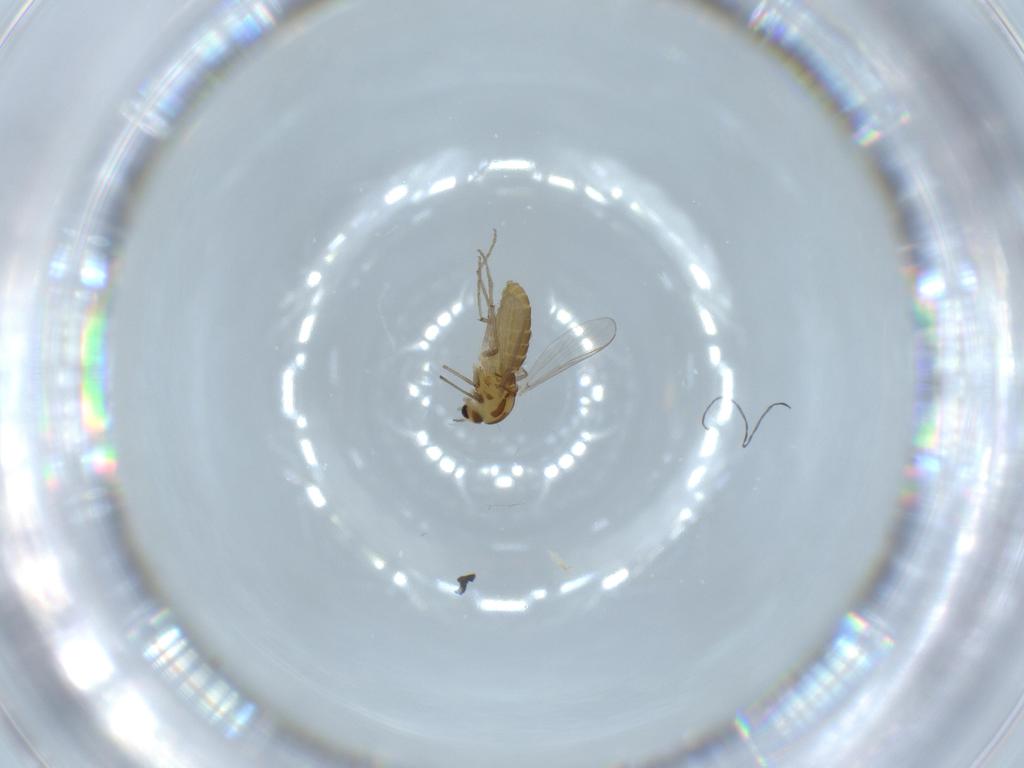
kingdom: Animalia
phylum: Arthropoda
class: Insecta
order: Diptera
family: Chironomidae
